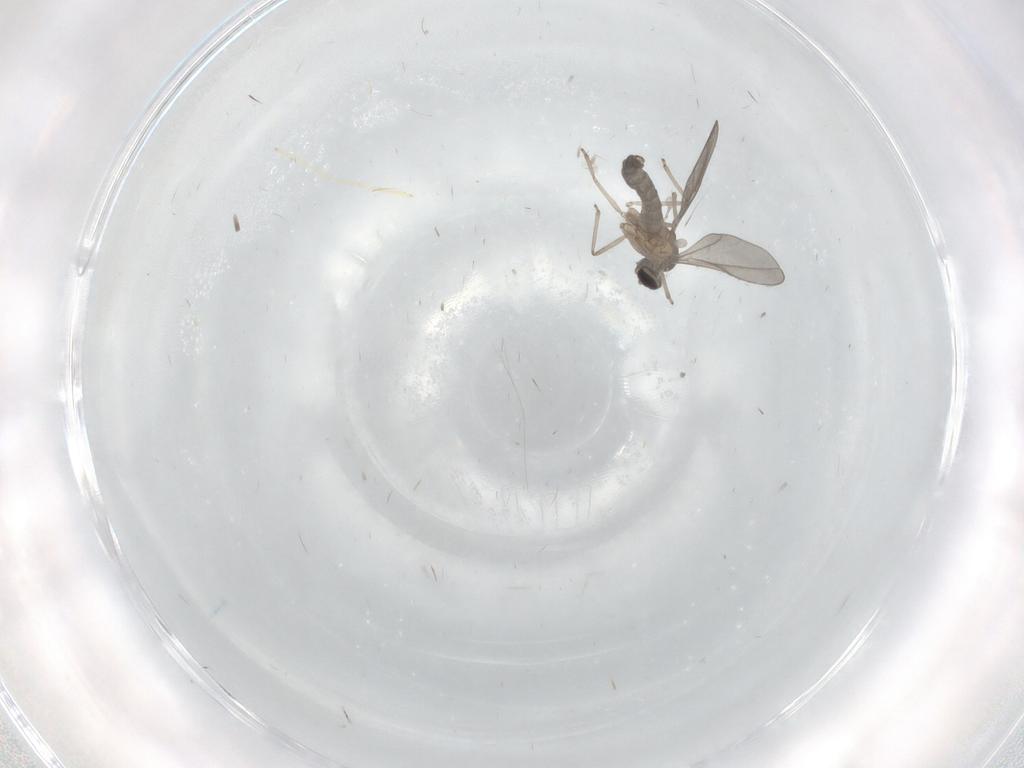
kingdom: Animalia
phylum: Arthropoda
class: Insecta
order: Diptera
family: Chironomidae
